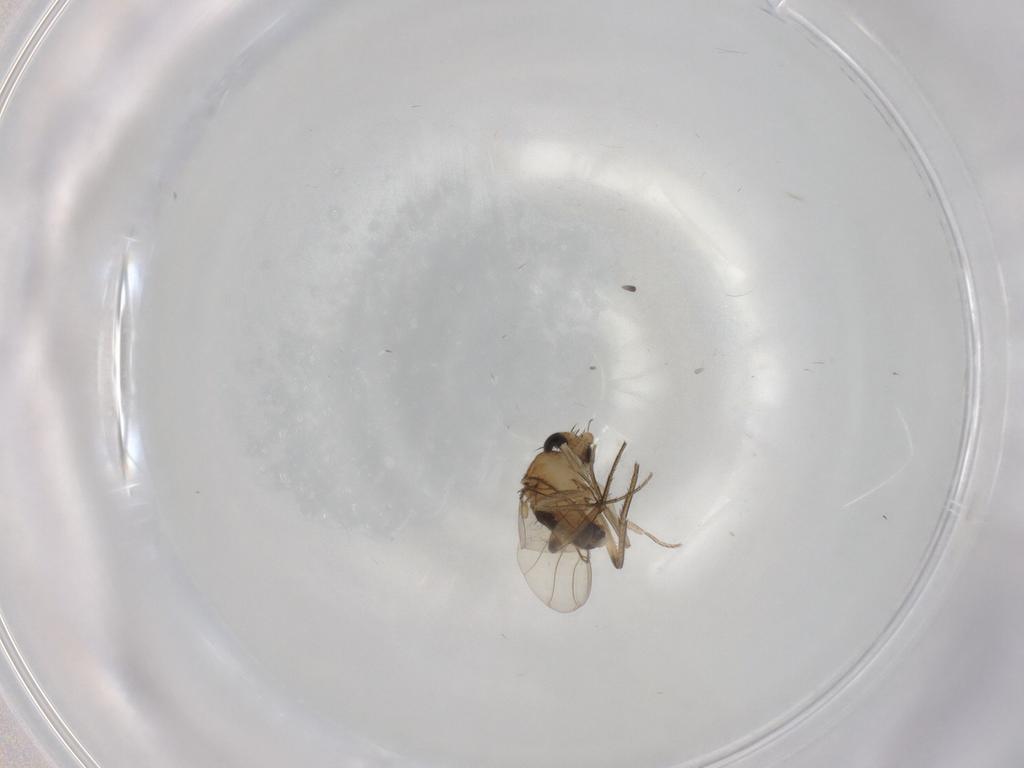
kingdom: Animalia
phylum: Arthropoda
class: Insecta
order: Diptera
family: Phoridae
